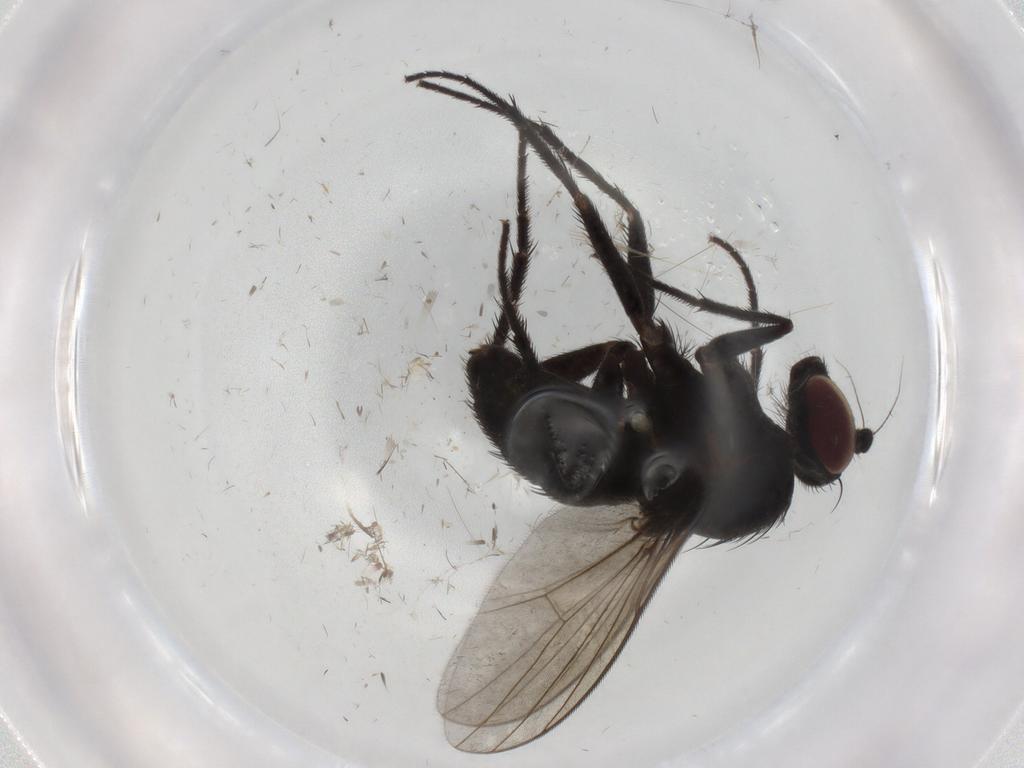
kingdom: Animalia
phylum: Arthropoda
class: Insecta
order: Diptera
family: Dolichopodidae
